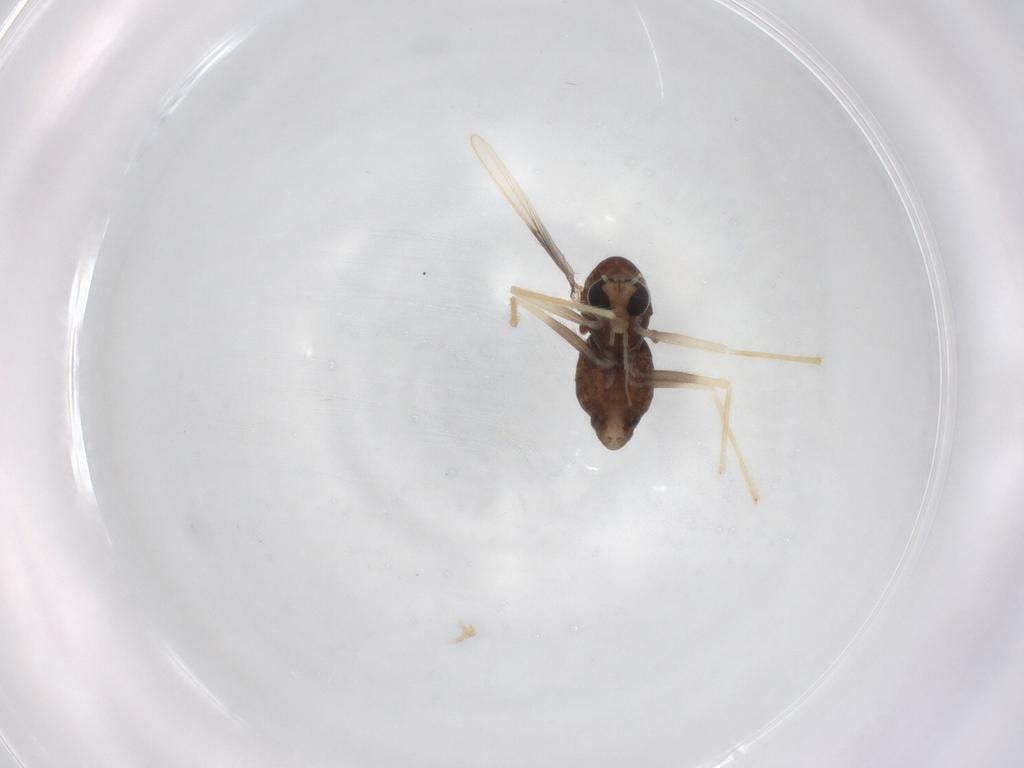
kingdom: Animalia
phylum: Arthropoda
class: Insecta
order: Diptera
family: Chironomidae
